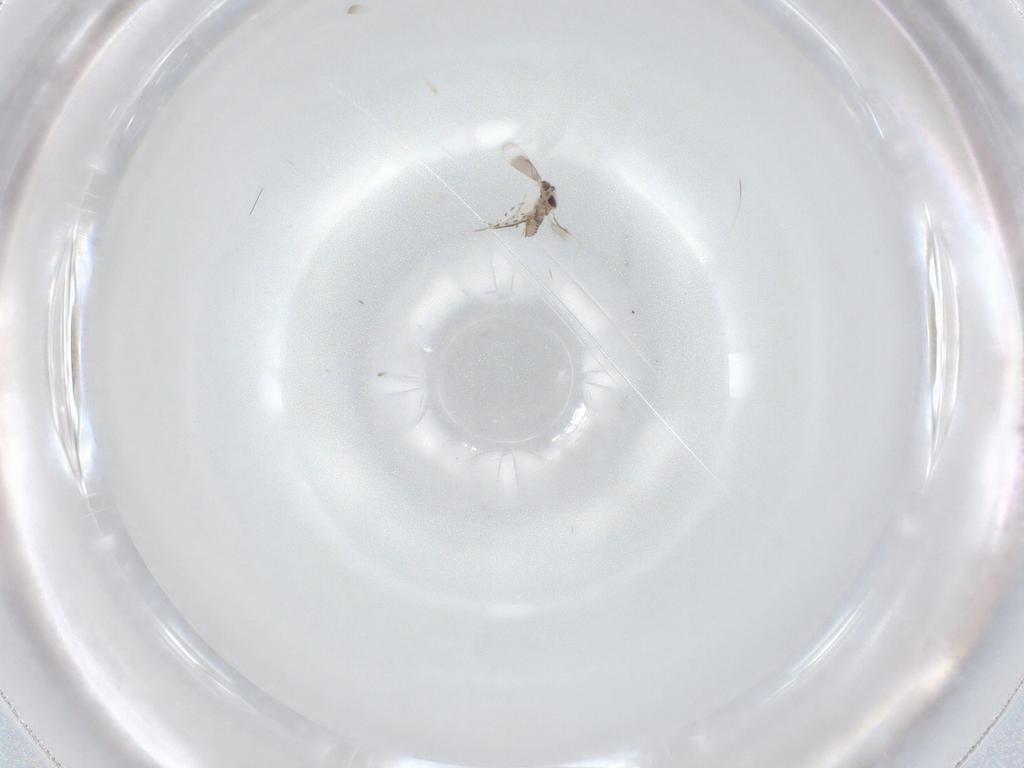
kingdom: Animalia
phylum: Arthropoda
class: Insecta
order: Hymenoptera
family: Aphelinidae
